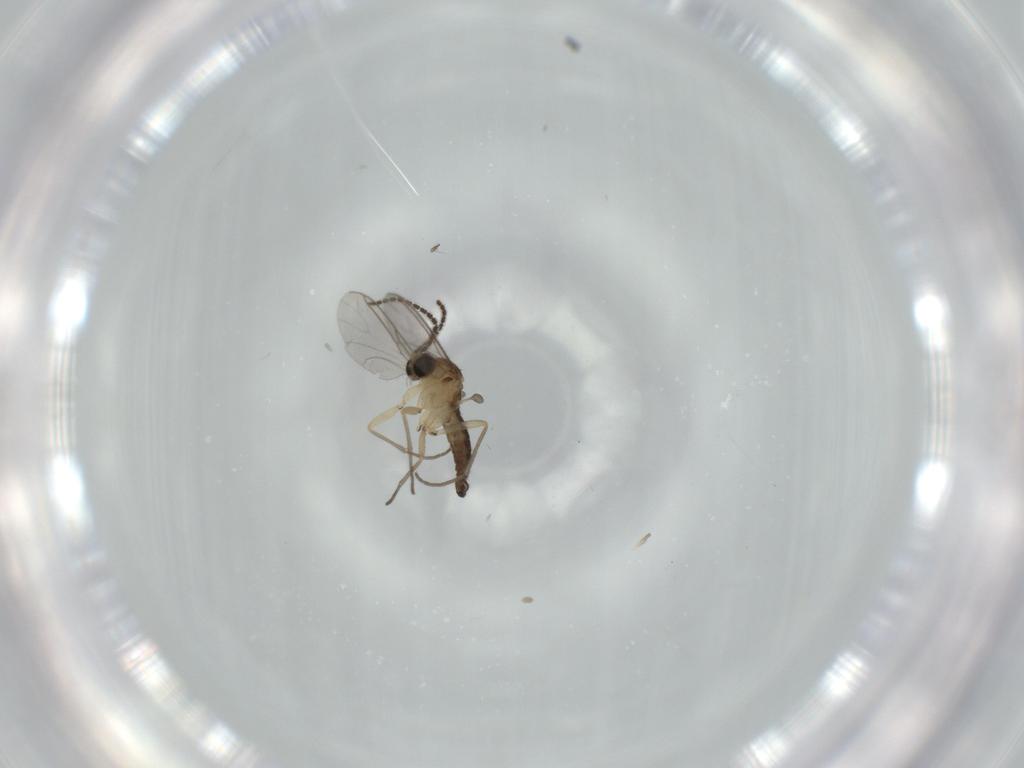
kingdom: Animalia
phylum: Arthropoda
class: Insecta
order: Diptera
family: Sciaridae
